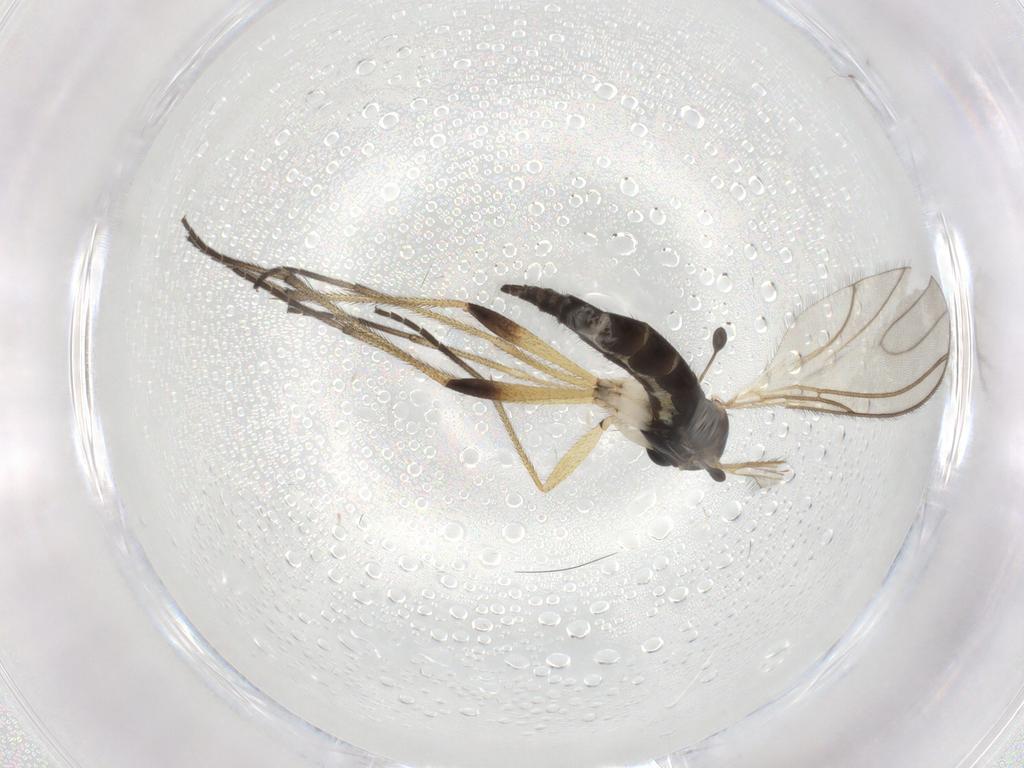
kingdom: Animalia
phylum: Arthropoda
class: Insecta
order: Diptera
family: Sciaridae
